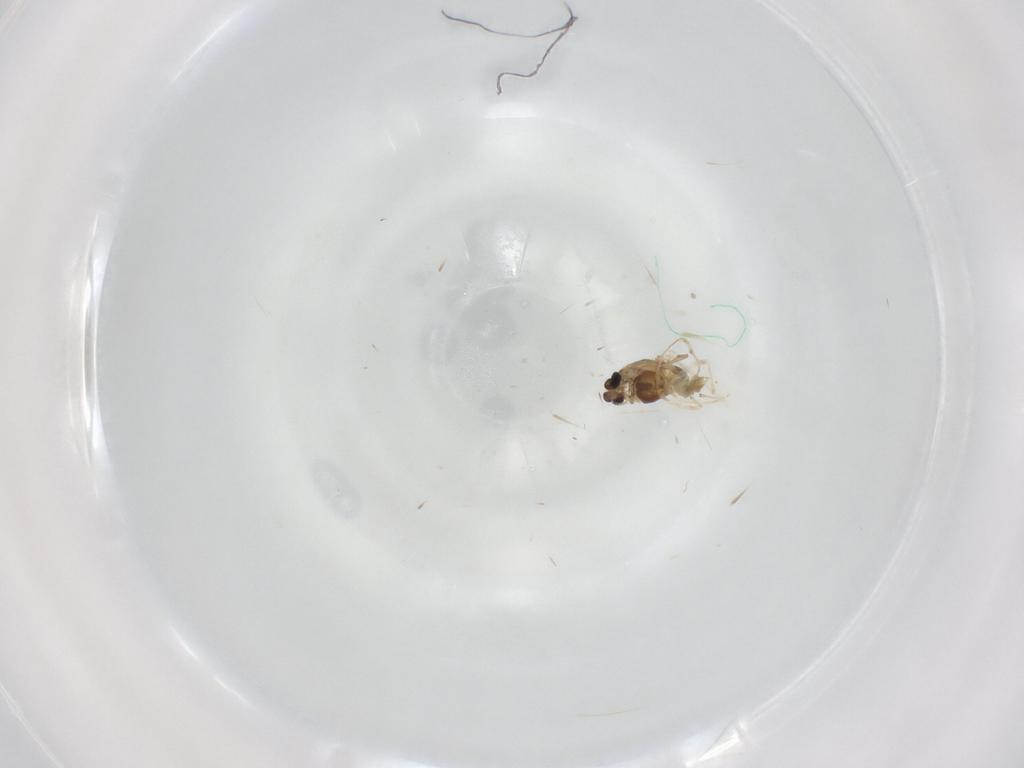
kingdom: Animalia
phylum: Arthropoda
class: Insecta
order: Diptera
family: Chironomidae
